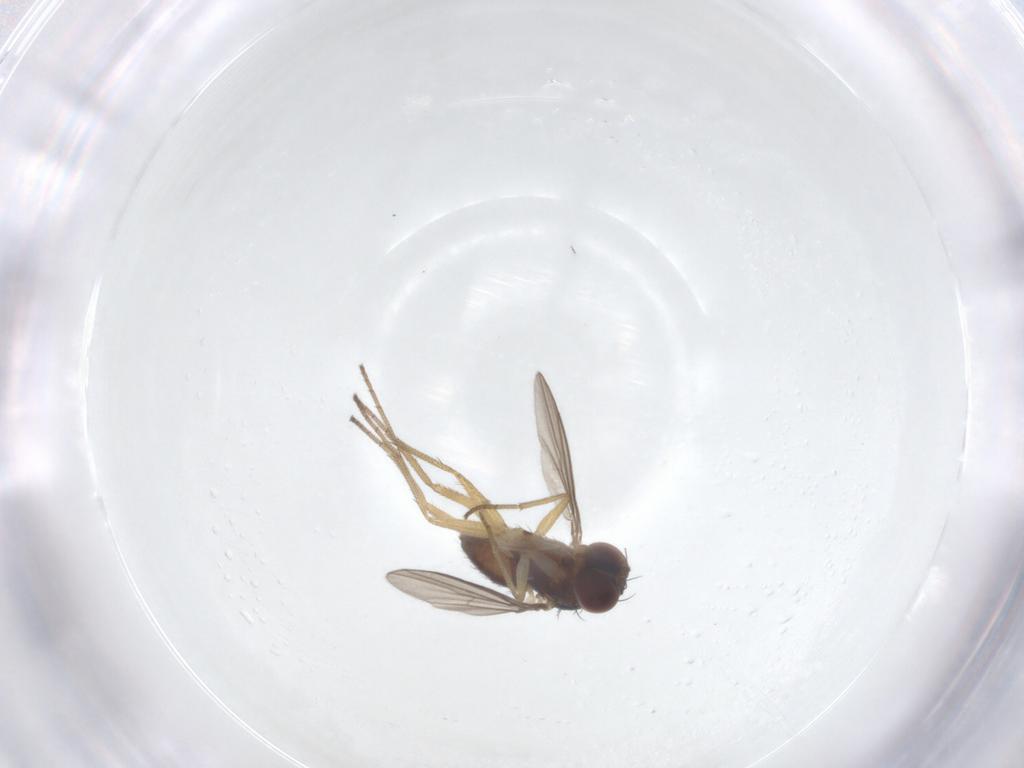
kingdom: Animalia
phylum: Arthropoda
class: Insecta
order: Diptera
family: Dolichopodidae
